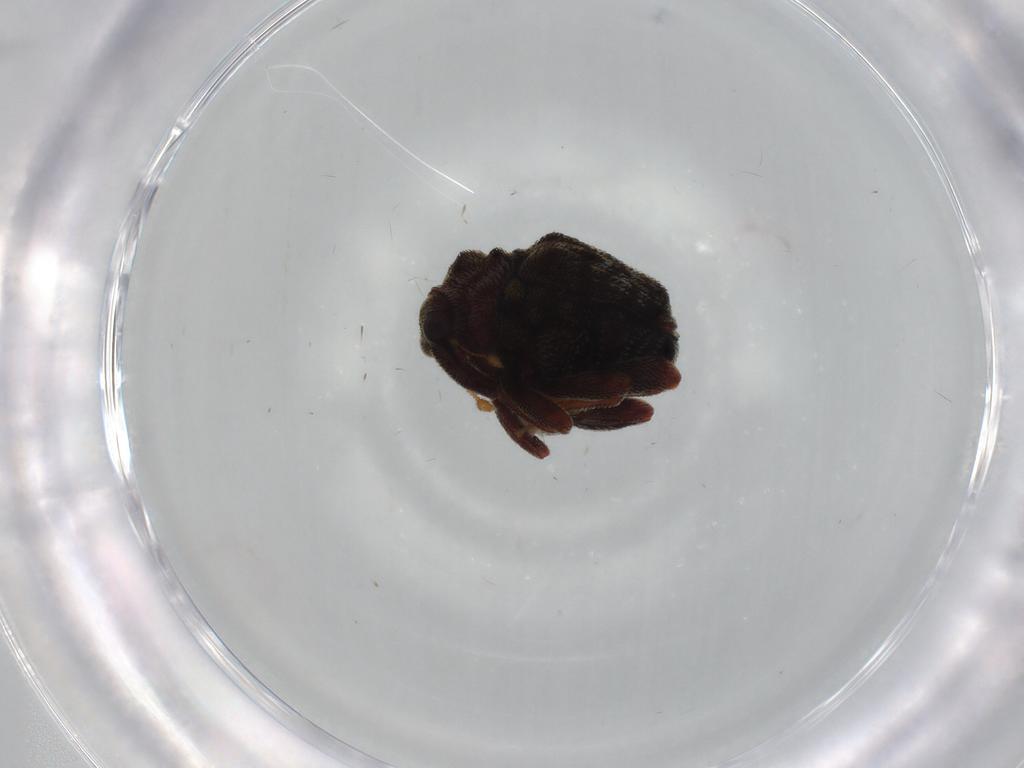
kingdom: Animalia
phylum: Arthropoda
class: Insecta
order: Coleoptera
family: Curculionidae
